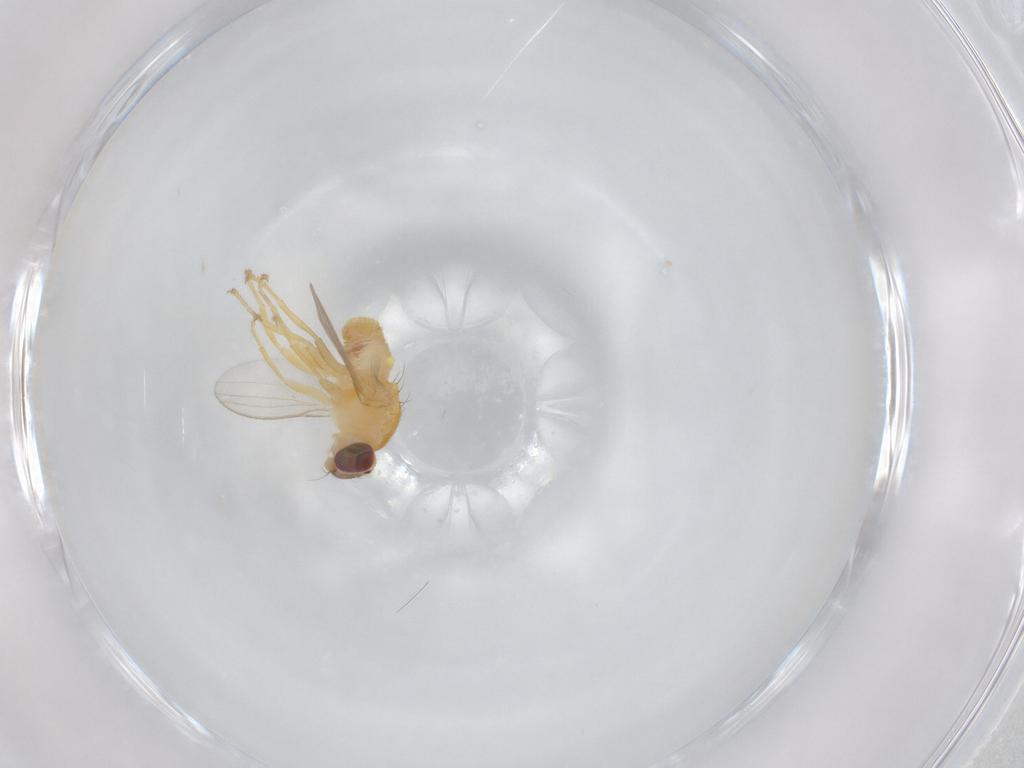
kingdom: Animalia
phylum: Arthropoda
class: Insecta
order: Diptera
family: Chyromyidae
